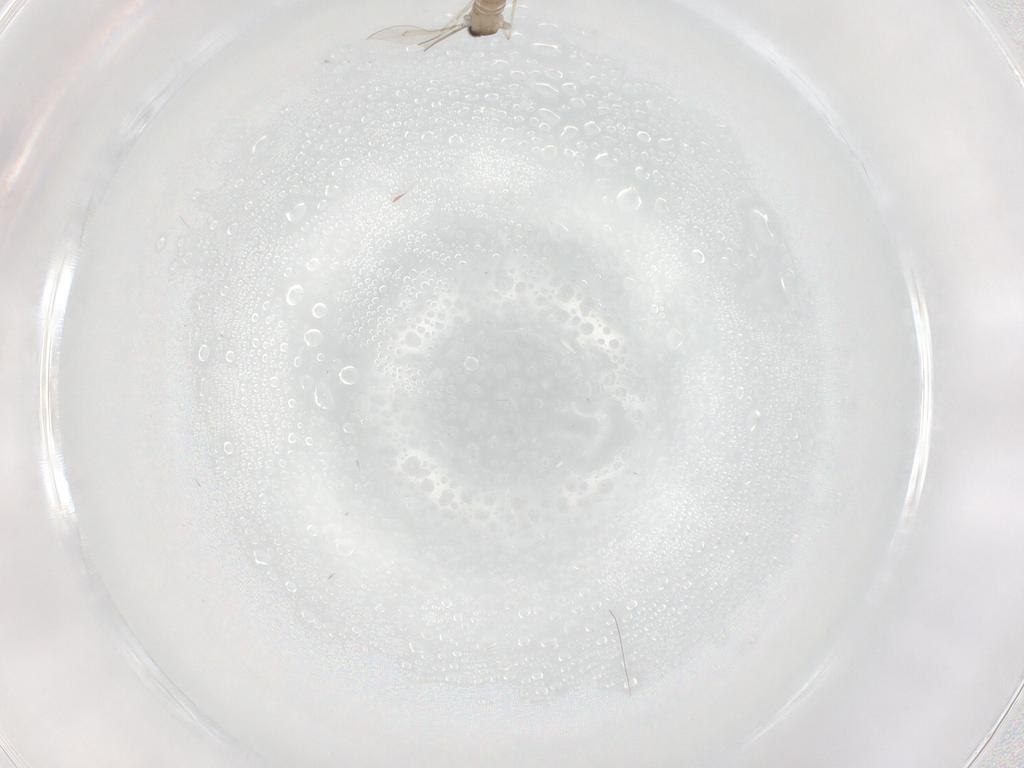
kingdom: Animalia
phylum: Arthropoda
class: Insecta
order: Diptera
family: Cecidomyiidae
